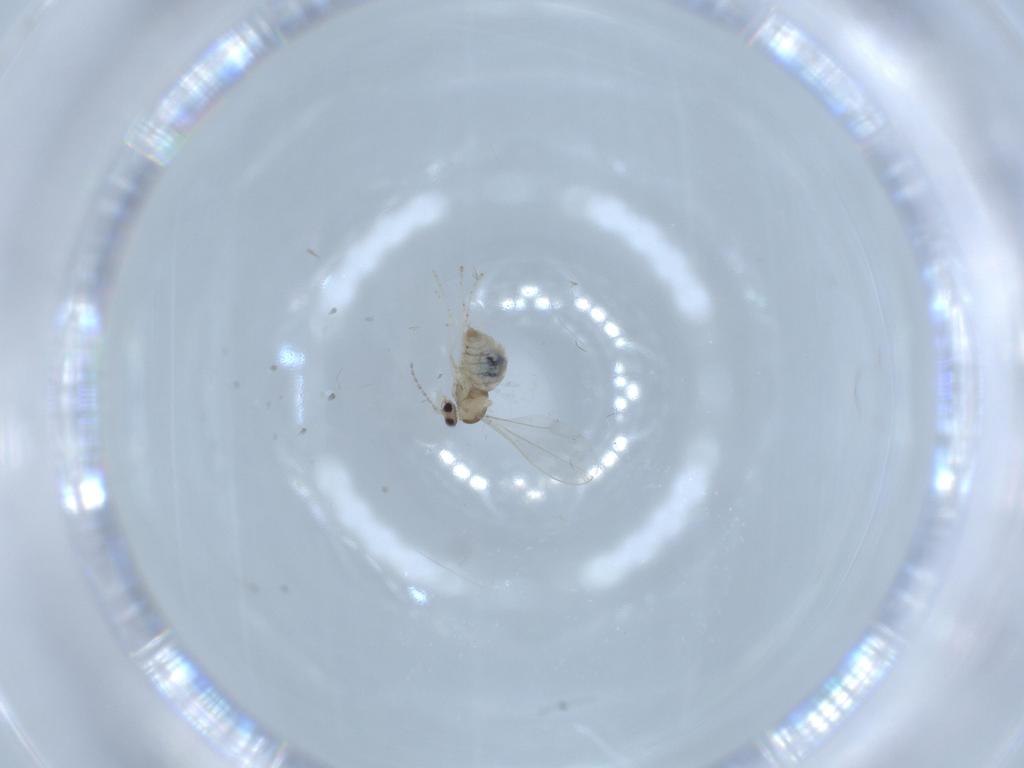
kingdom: Animalia
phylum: Arthropoda
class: Insecta
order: Diptera
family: Cecidomyiidae
